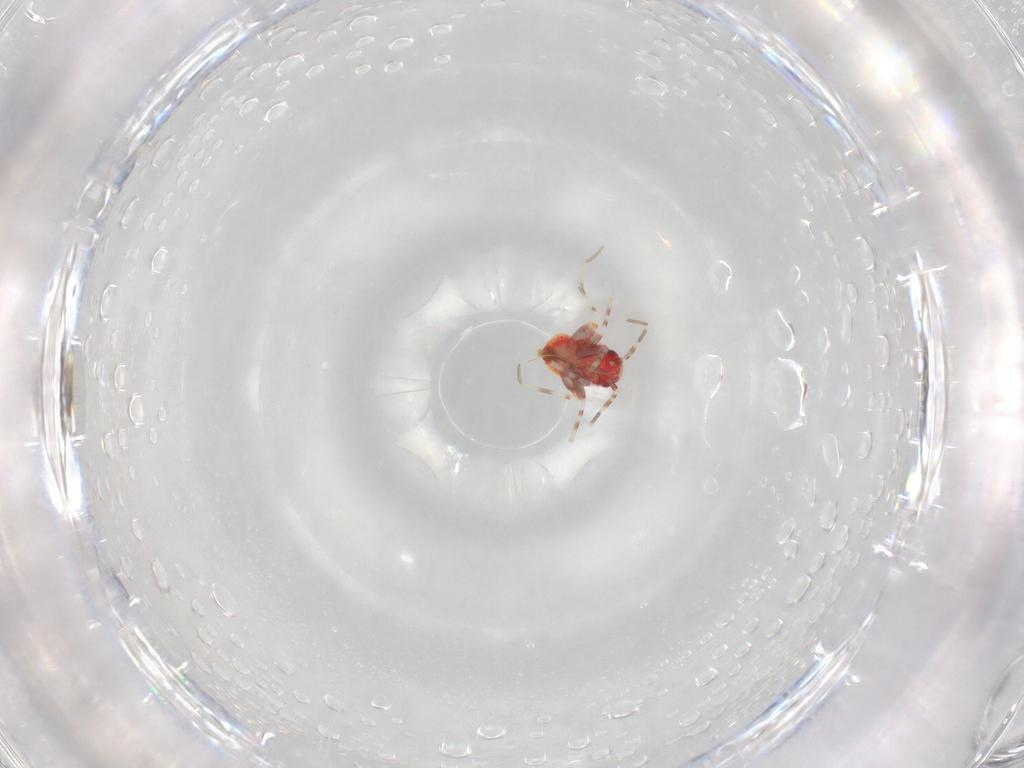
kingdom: Animalia
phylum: Arthropoda
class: Insecta
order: Hemiptera
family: Miridae
